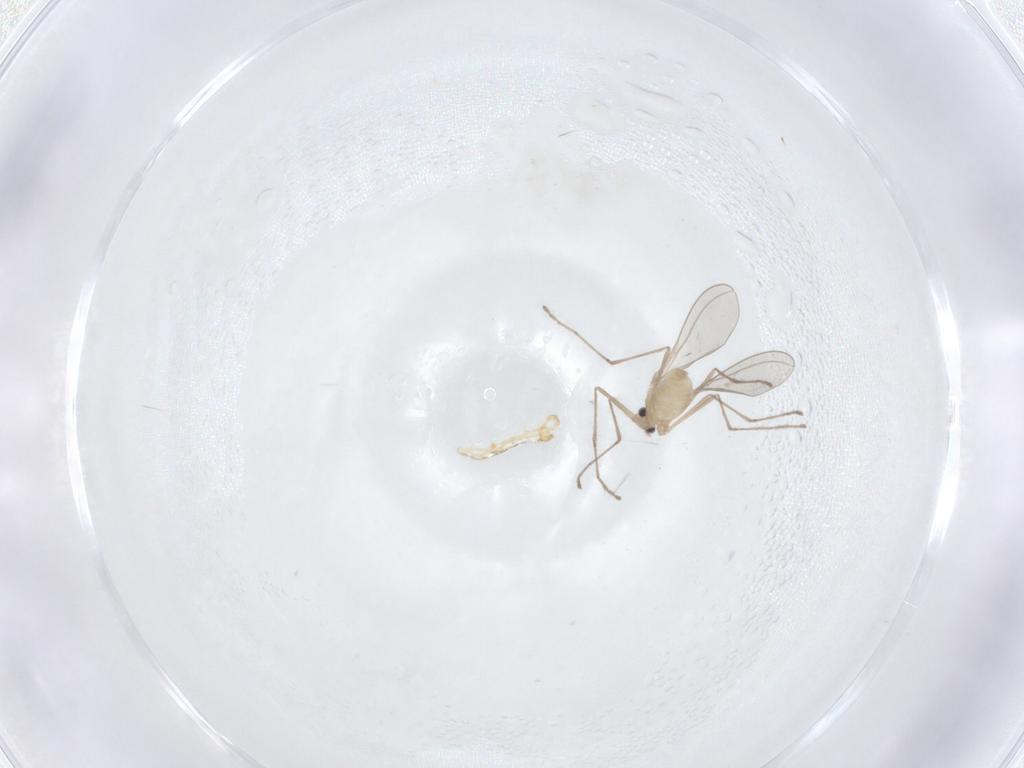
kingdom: Animalia
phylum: Arthropoda
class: Insecta
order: Diptera
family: Cecidomyiidae
